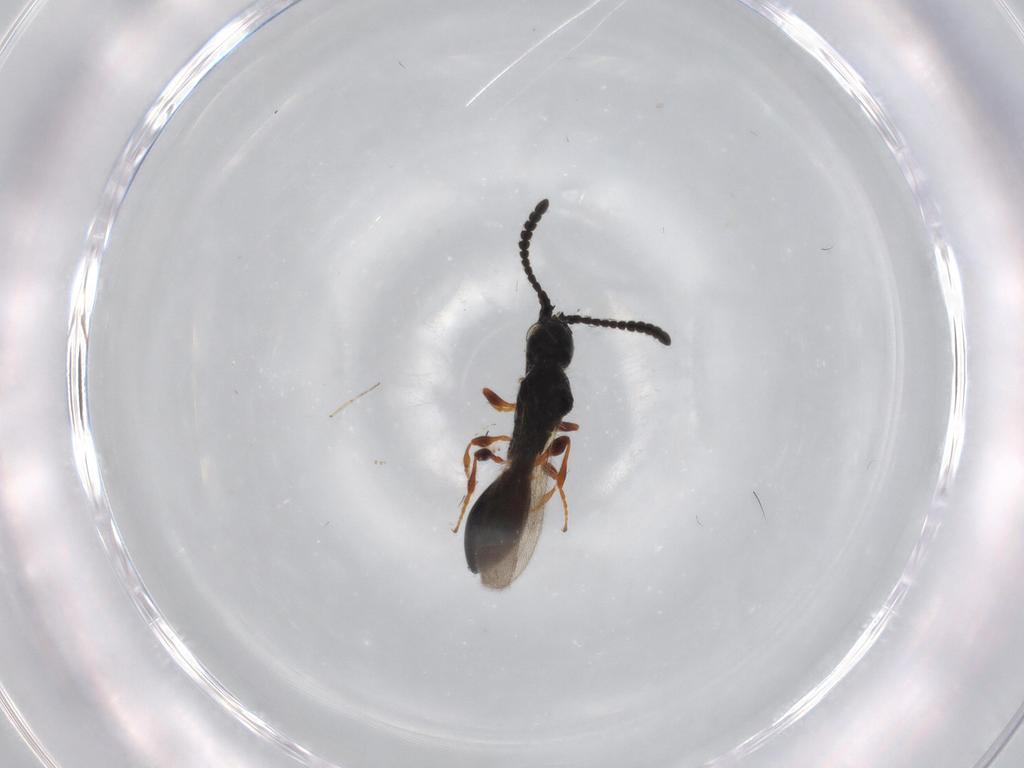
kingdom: Animalia
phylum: Arthropoda
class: Insecta
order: Hymenoptera
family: Diapriidae
